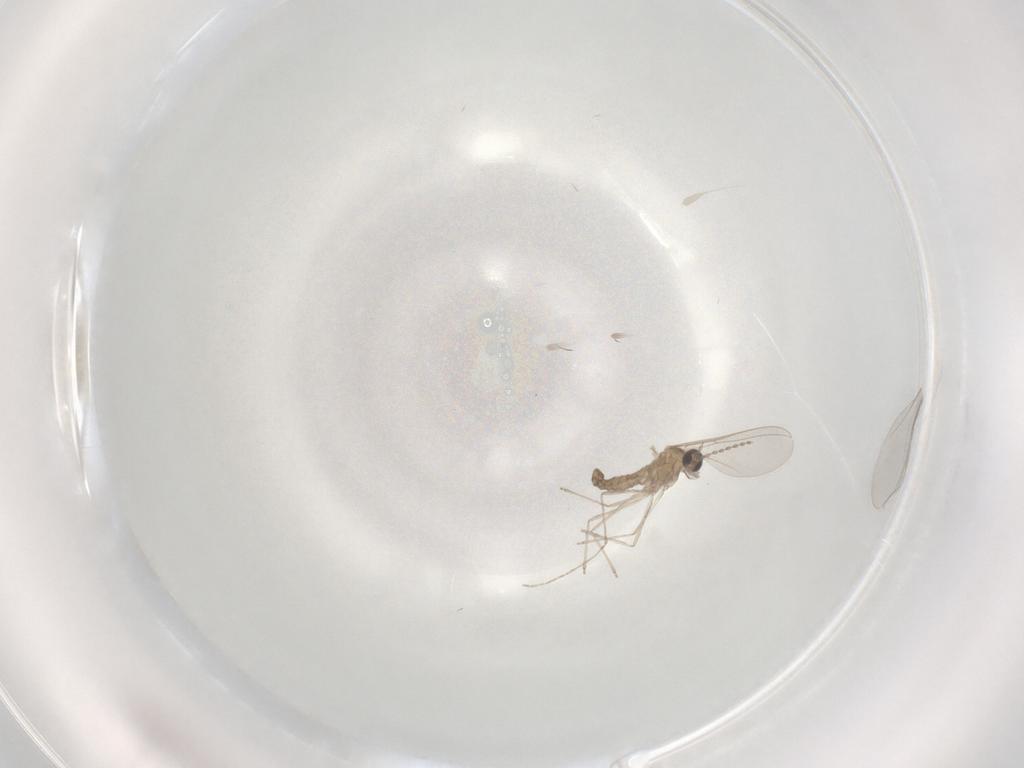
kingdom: Animalia
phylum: Arthropoda
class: Insecta
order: Diptera
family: Cecidomyiidae
